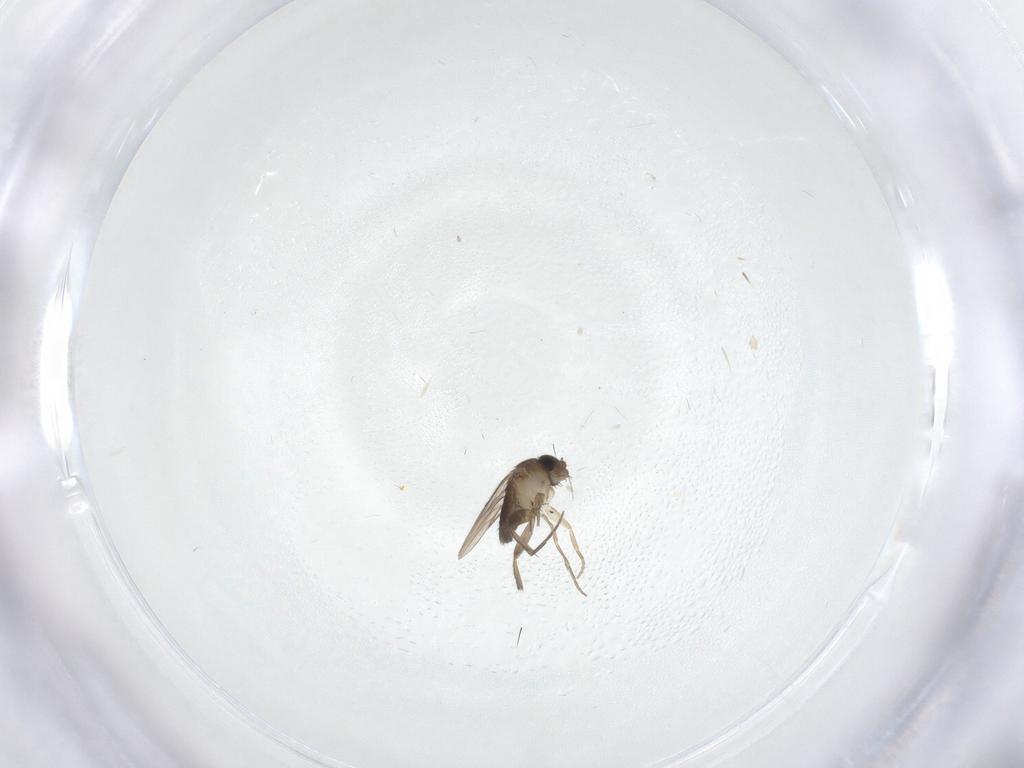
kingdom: Animalia
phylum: Arthropoda
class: Insecta
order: Diptera
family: Phoridae
